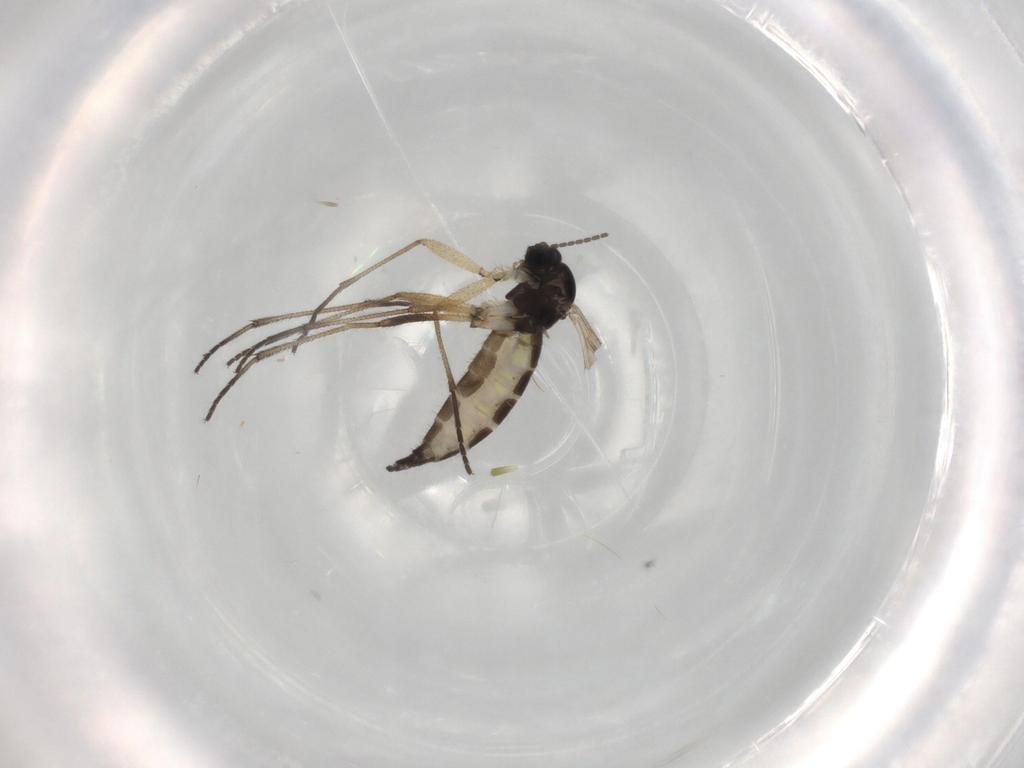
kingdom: Animalia
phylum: Arthropoda
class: Insecta
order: Diptera
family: Sciaridae
